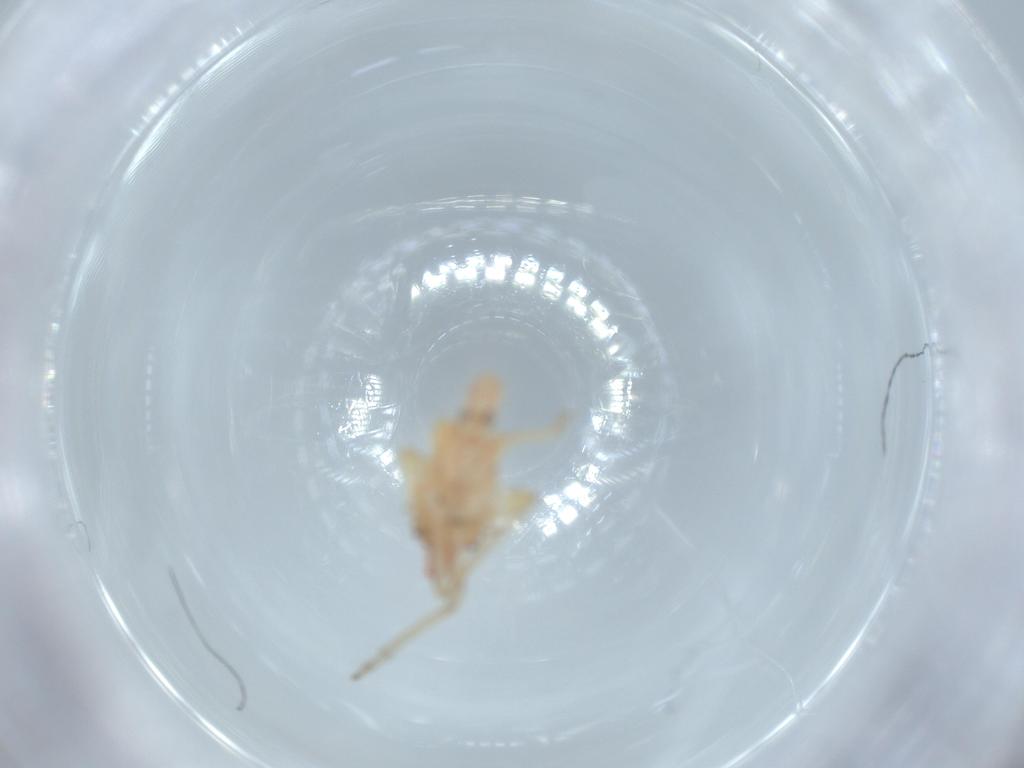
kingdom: Animalia
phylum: Arthropoda
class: Insecta
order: Hemiptera
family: Tropiduchidae
